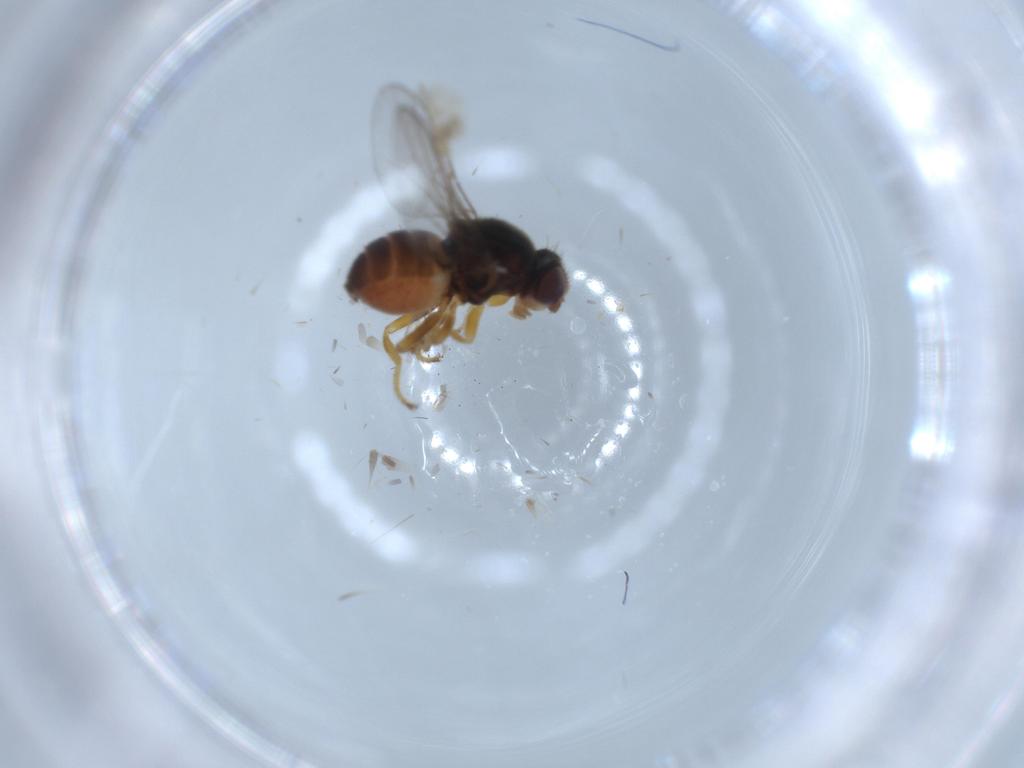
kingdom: Animalia
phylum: Arthropoda
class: Insecta
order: Diptera
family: Chloropidae
